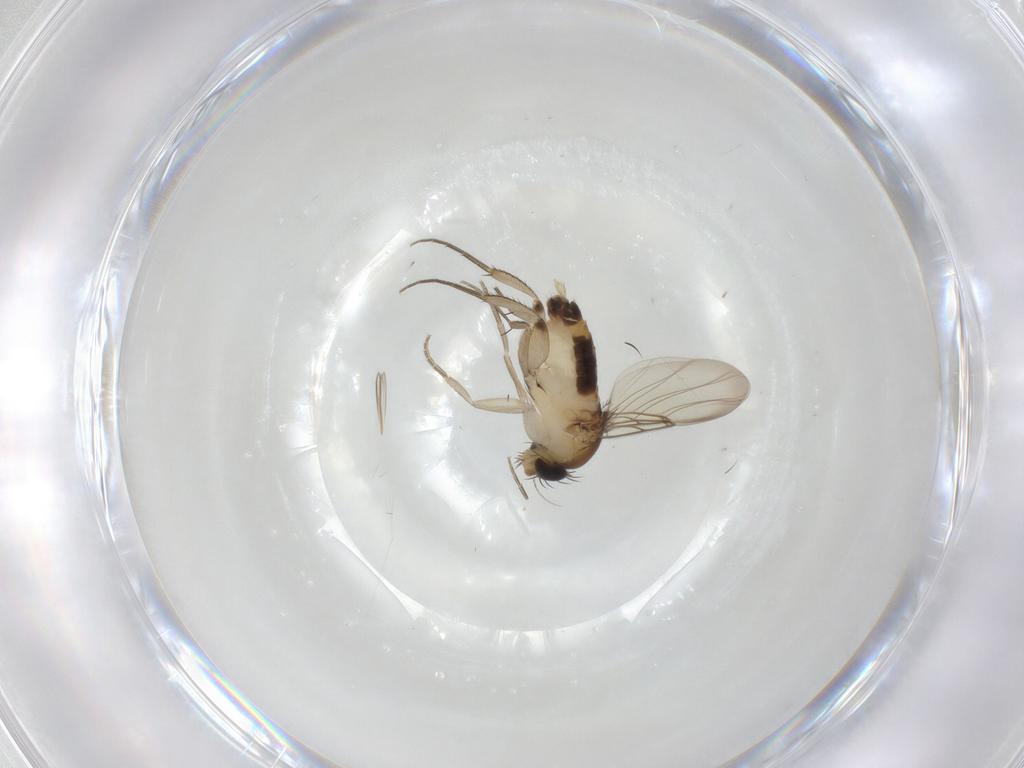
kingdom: Animalia
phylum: Arthropoda
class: Insecta
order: Diptera
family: Phoridae
